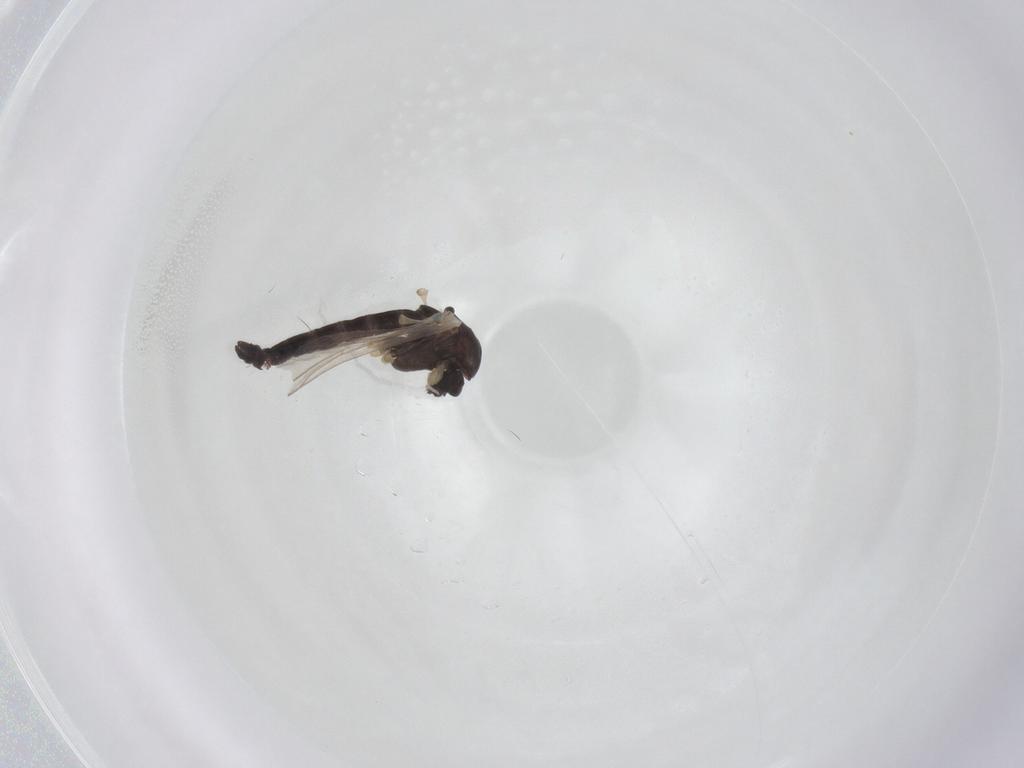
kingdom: Animalia
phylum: Arthropoda
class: Insecta
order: Diptera
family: Chironomidae
